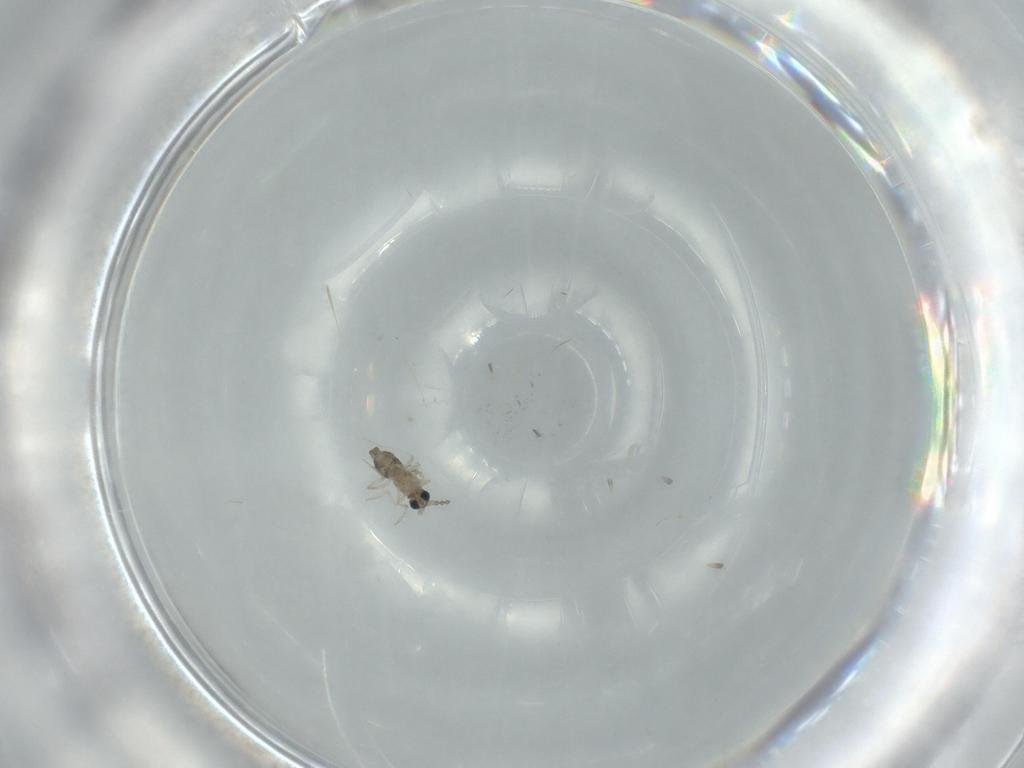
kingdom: Animalia
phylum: Arthropoda
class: Insecta
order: Diptera
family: Cecidomyiidae
